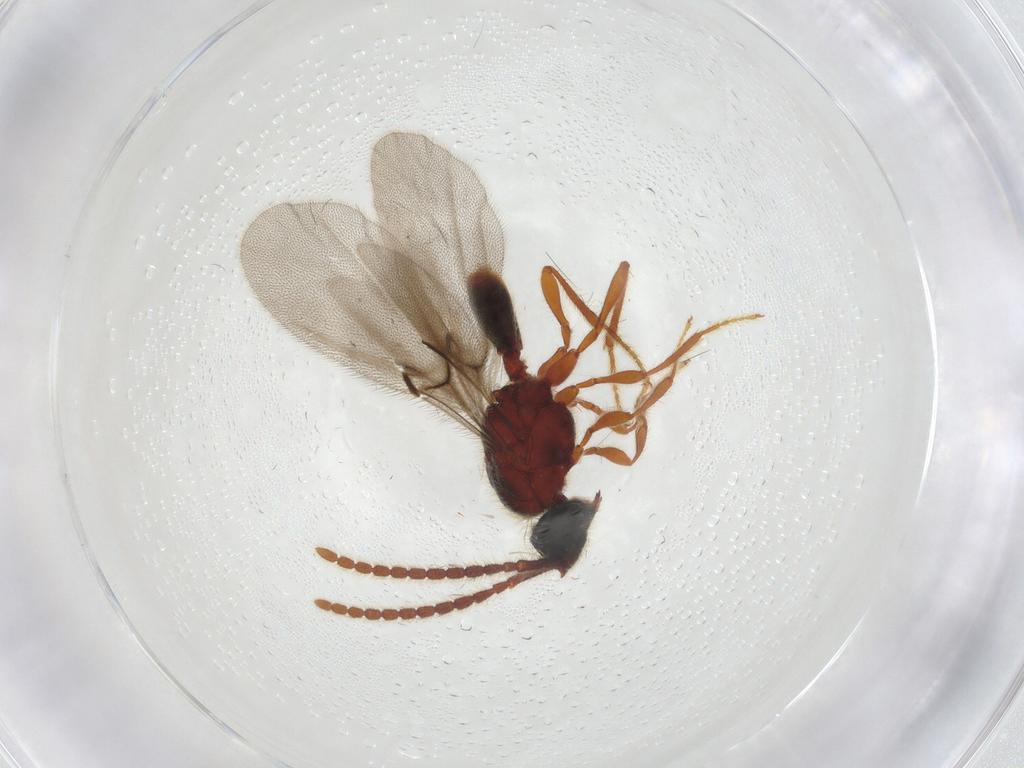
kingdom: Animalia
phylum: Arthropoda
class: Insecta
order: Hymenoptera
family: Diapriidae
